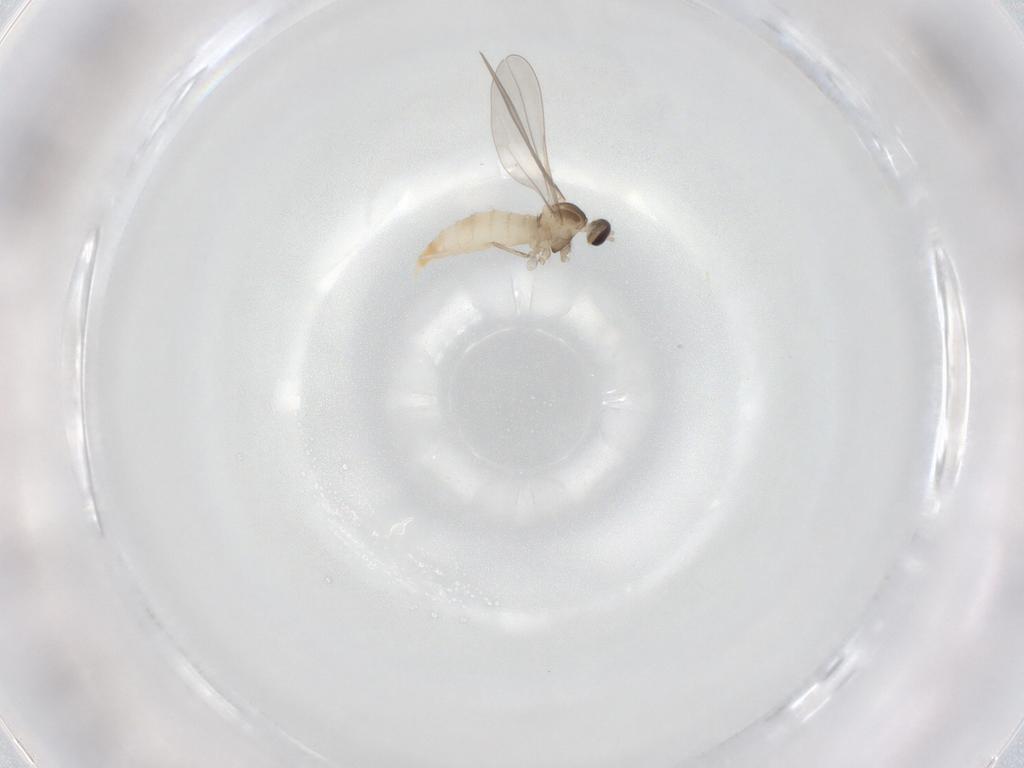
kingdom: Animalia
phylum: Arthropoda
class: Insecta
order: Diptera
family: Cecidomyiidae
